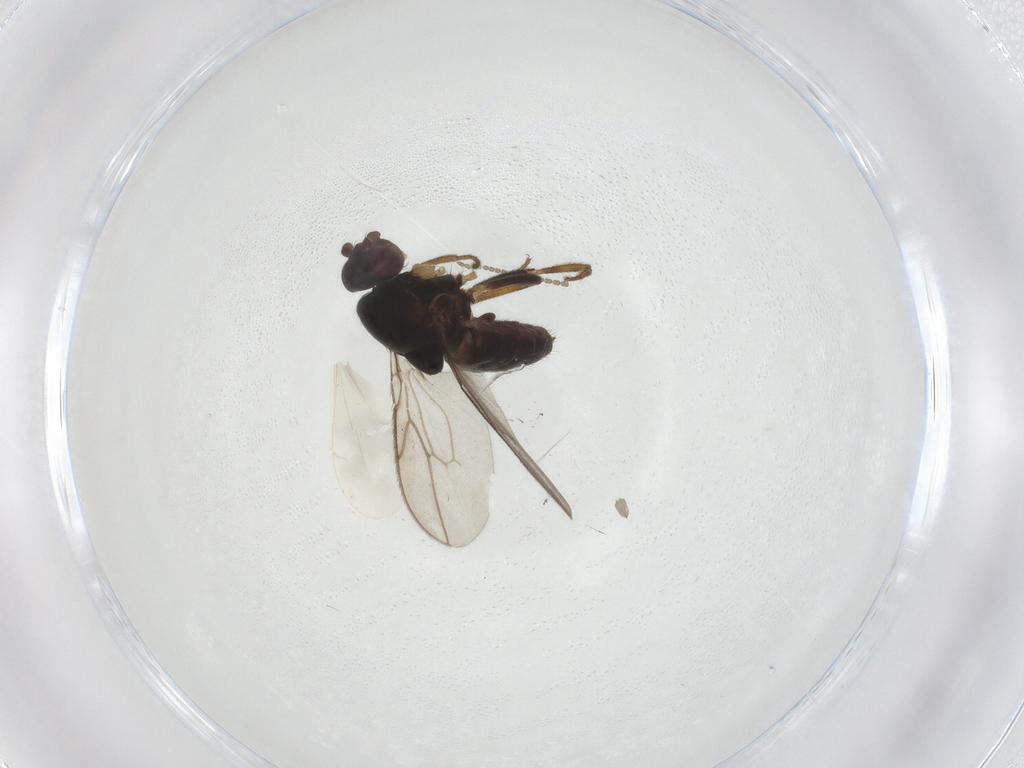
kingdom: Animalia
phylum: Arthropoda
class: Insecta
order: Diptera
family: Sphaeroceridae
